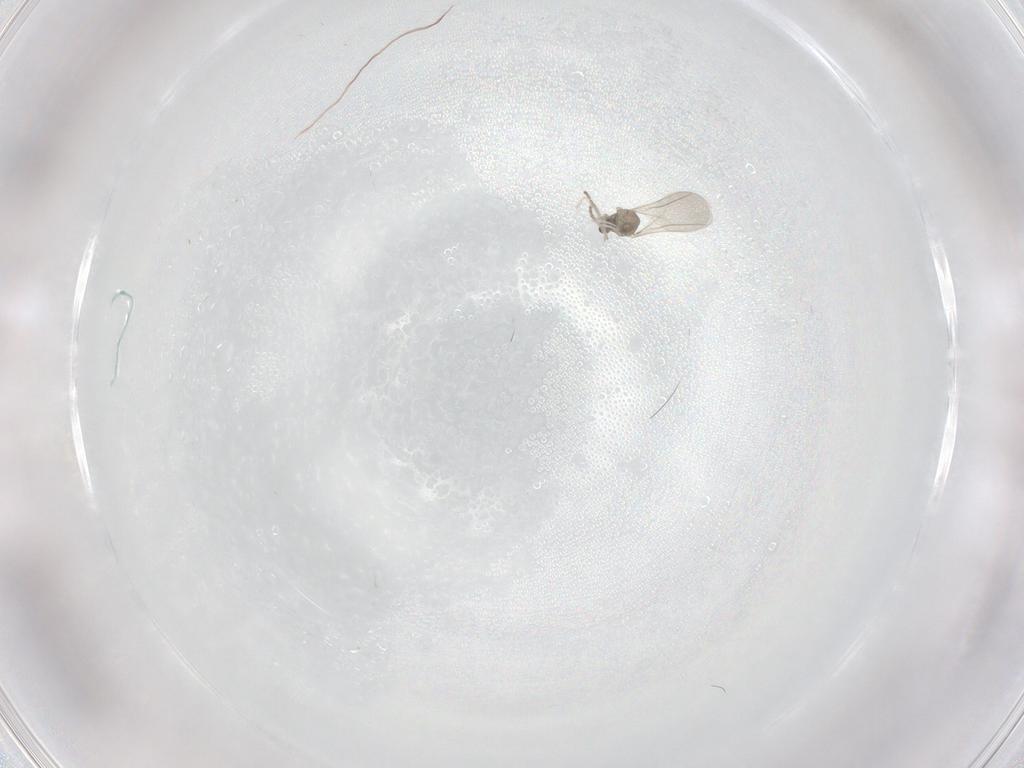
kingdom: Animalia
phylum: Arthropoda
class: Insecta
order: Diptera
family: Cecidomyiidae
